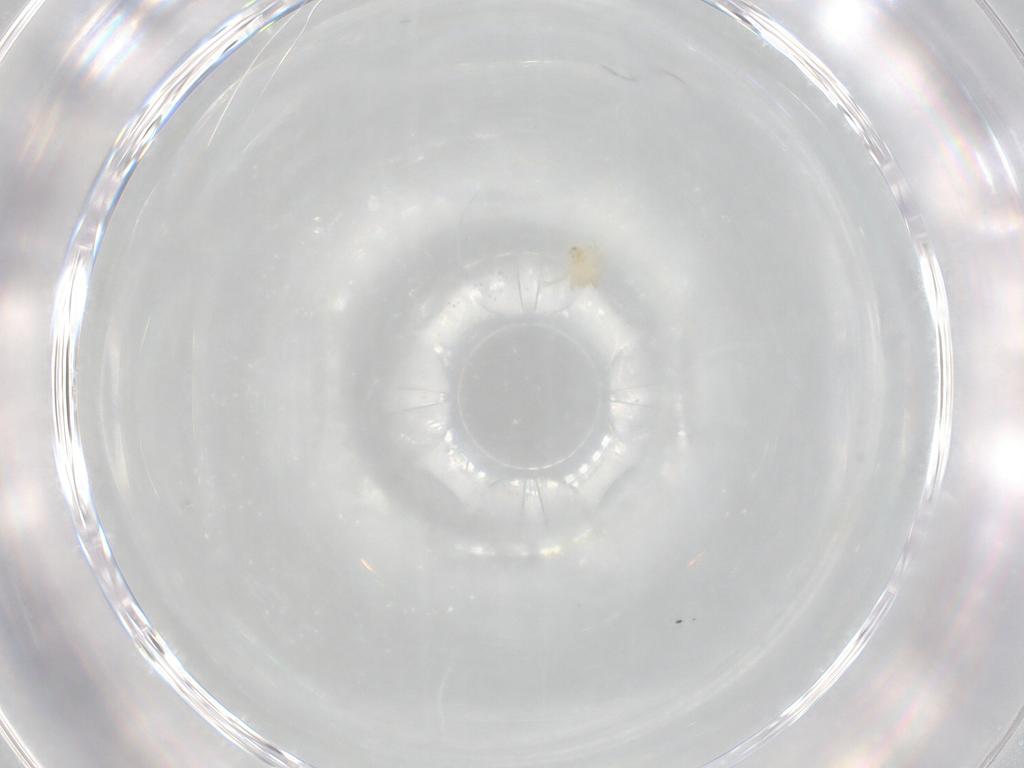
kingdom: Animalia
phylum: Arthropoda
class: Arachnida
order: Trombidiformes
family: Erythraeidae
